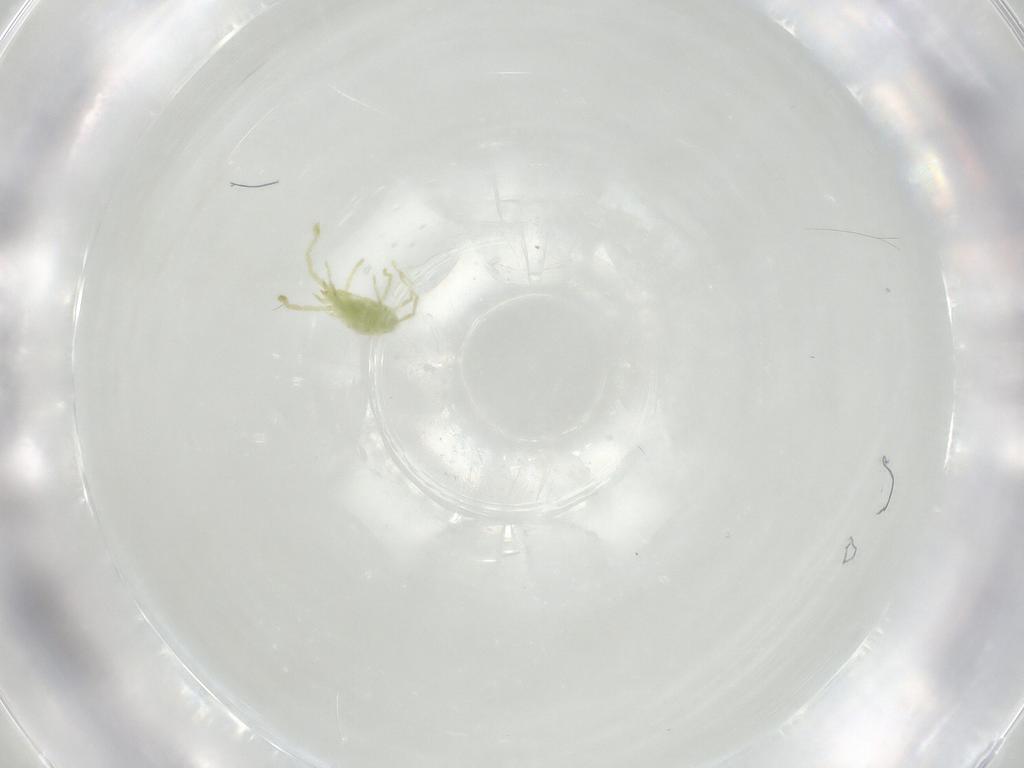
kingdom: Animalia
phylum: Arthropoda
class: Arachnida
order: Trombidiformes
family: Erythraeidae
